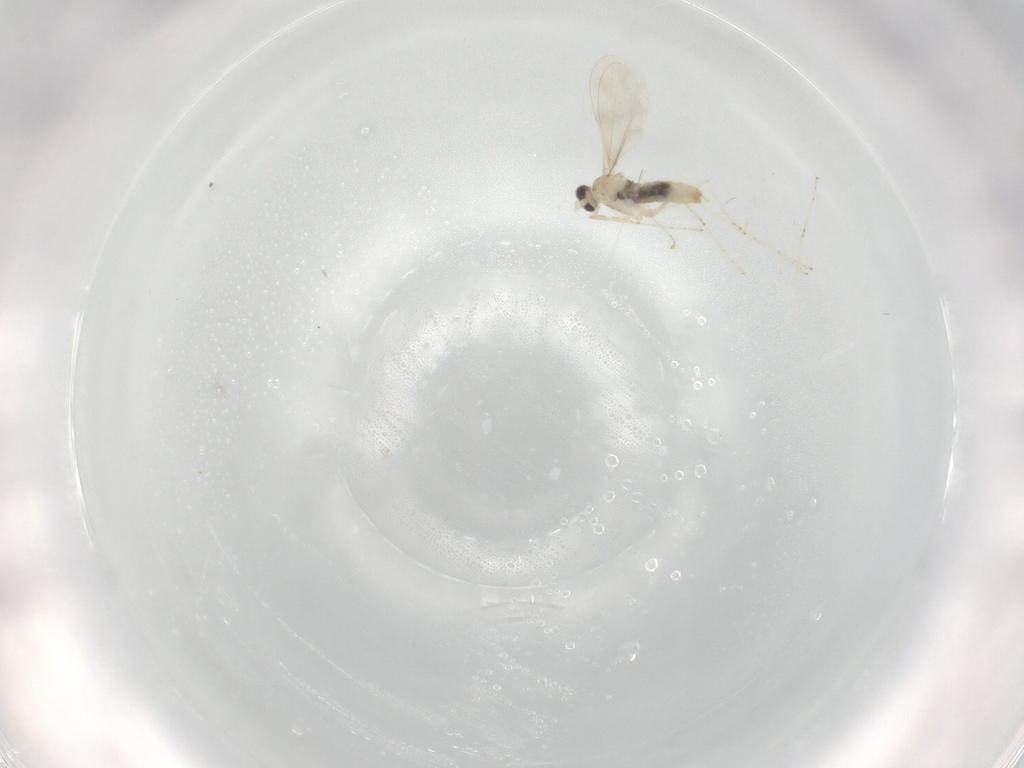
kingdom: Animalia
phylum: Arthropoda
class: Insecta
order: Diptera
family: Cecidomyiidae
